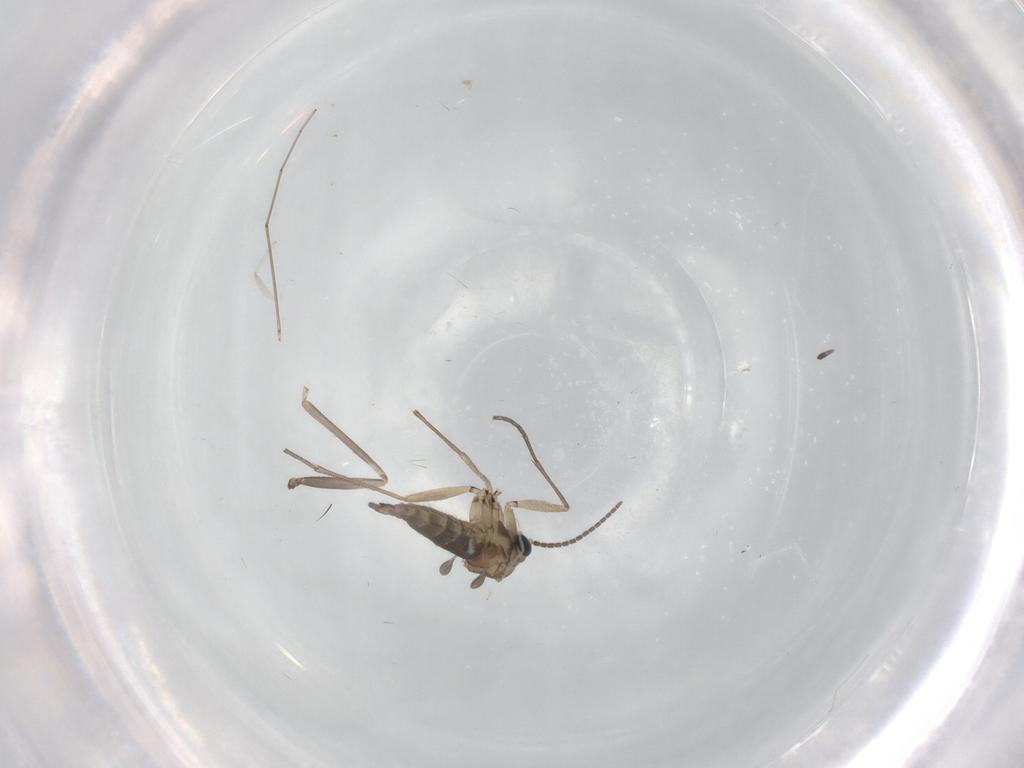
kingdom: Animalia
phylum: Arthropoda
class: Insecta
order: Diptera
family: Sciaridae
